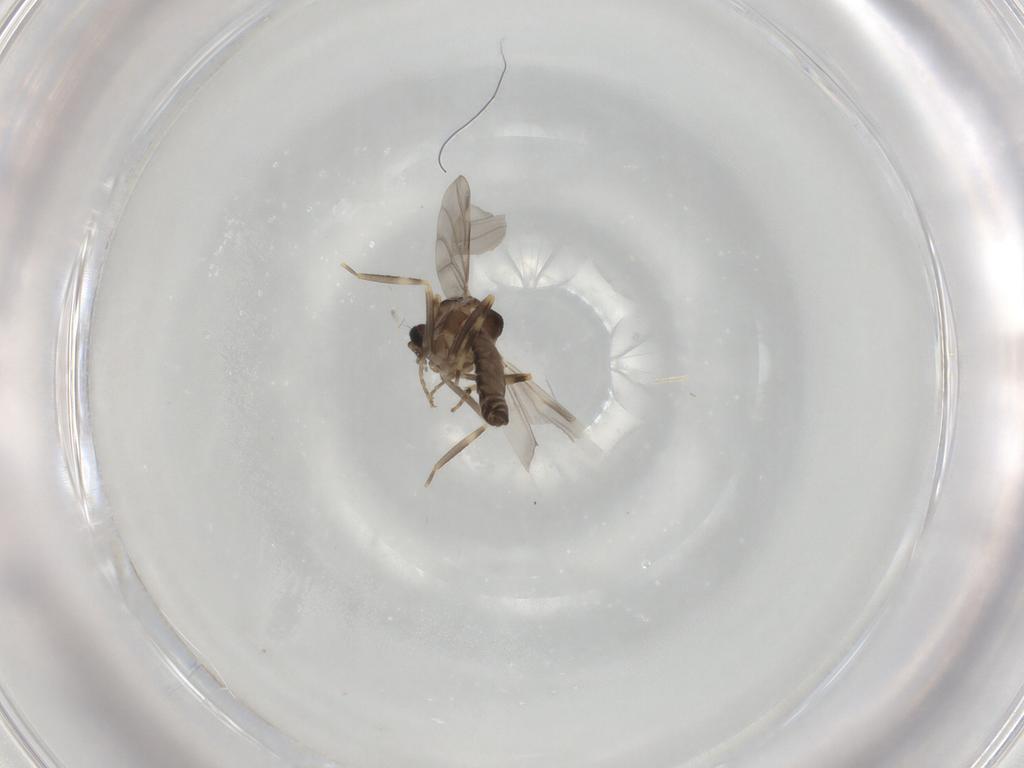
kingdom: Animalia
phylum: Arthropoda
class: Insecta
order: Diptera
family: Ceratopogonidae
